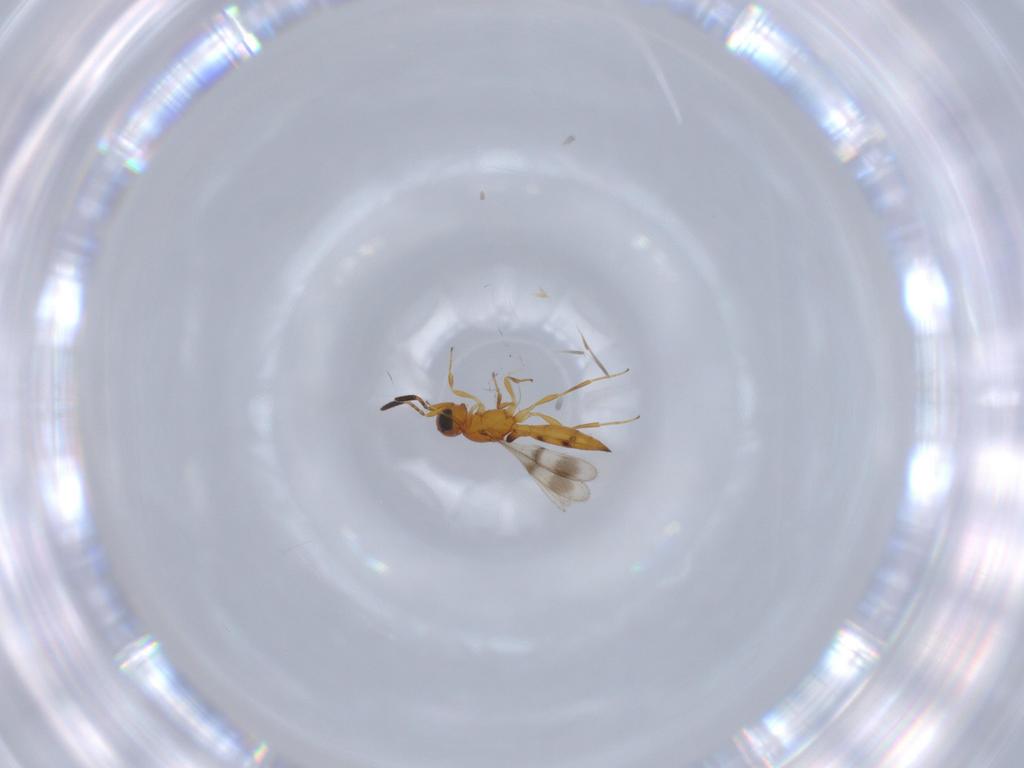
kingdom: Animalia
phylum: Arthropoda
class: Insecta
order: Hymenoptera
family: Scelionidae
